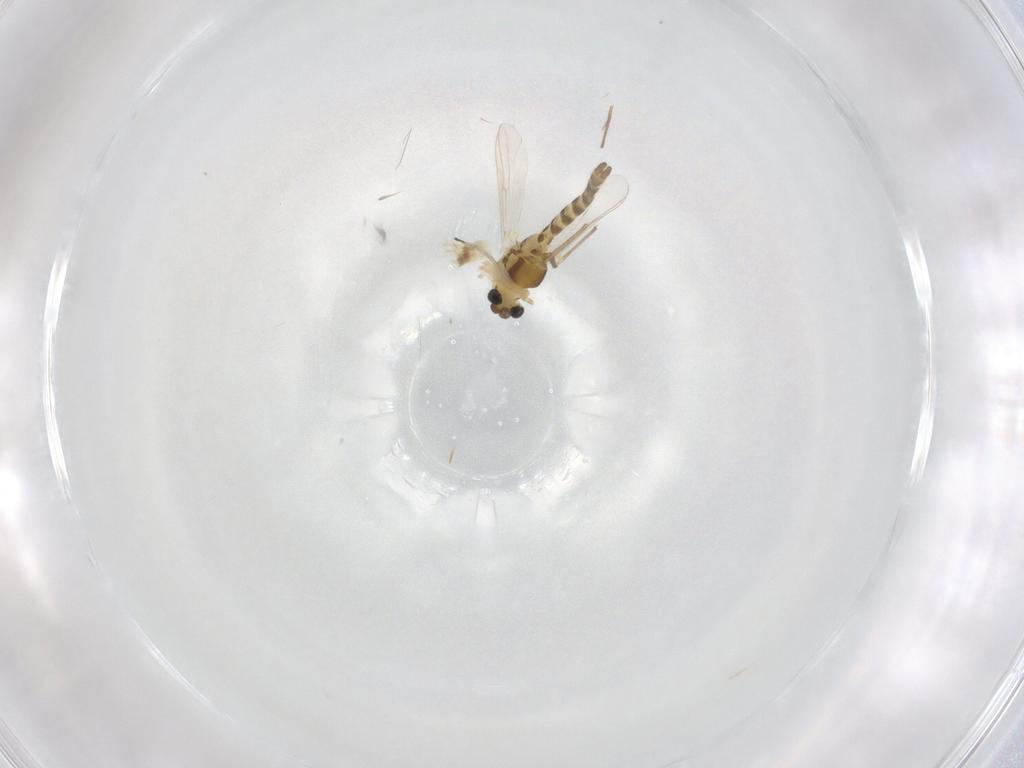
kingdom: Animalia
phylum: Arthropoda
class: Insecta
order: Diptera
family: Chironomidae
